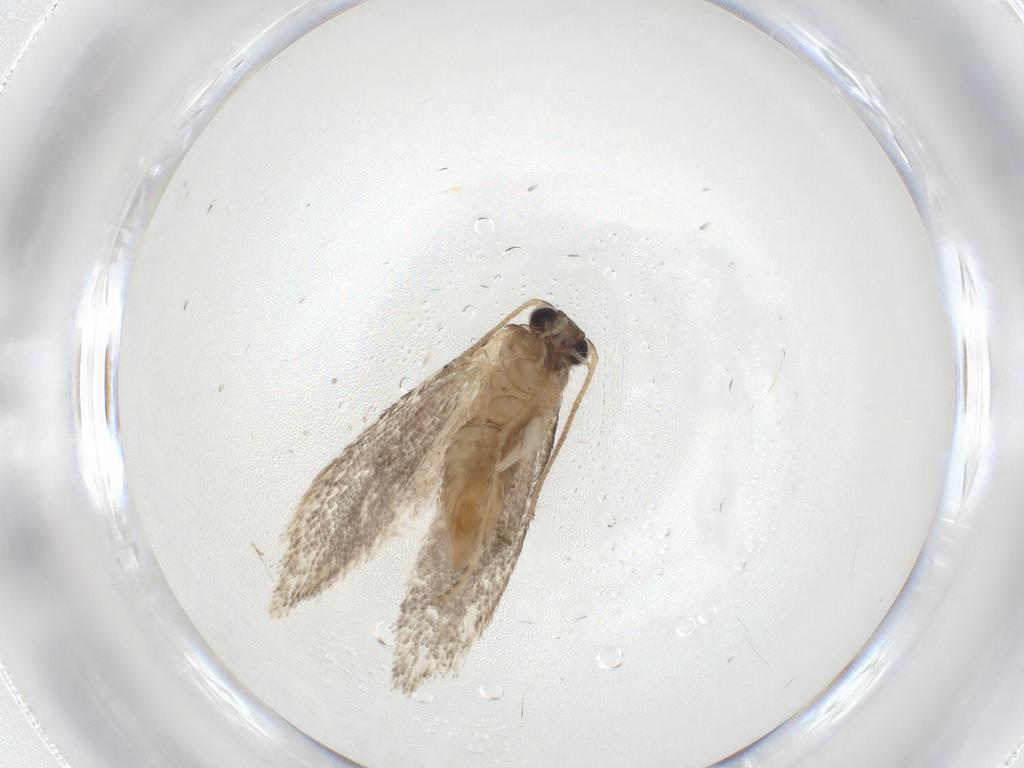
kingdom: Animalia
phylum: Arthropoda
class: Insecta
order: Lepidoptera
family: Tineidae
